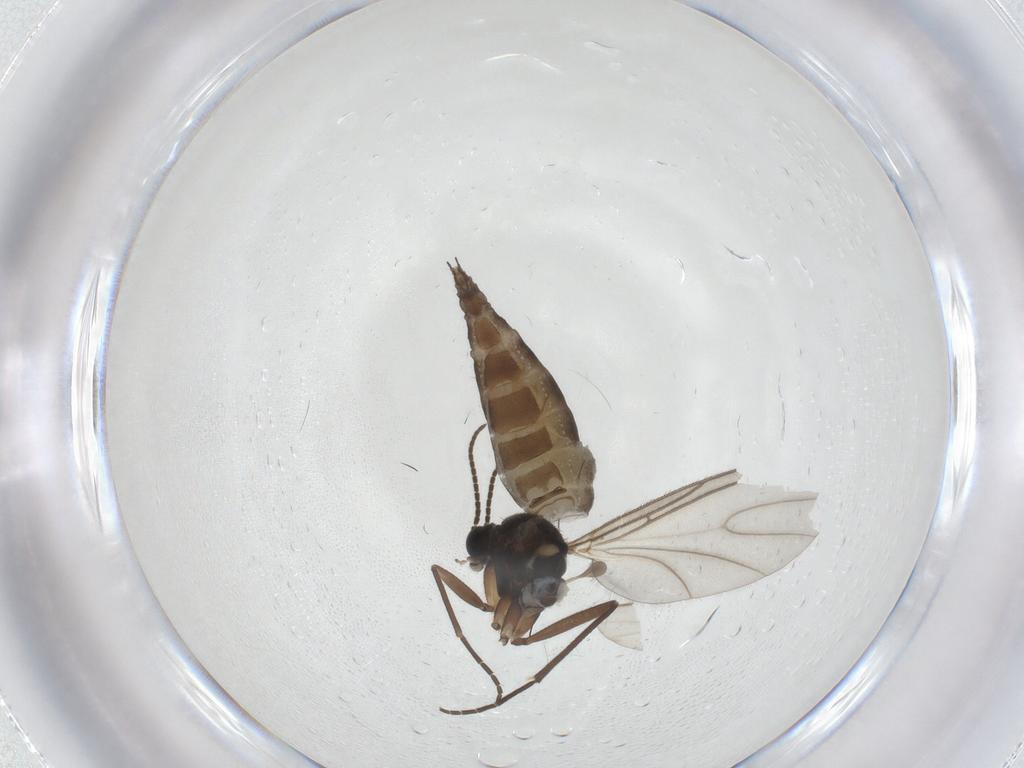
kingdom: Animalia
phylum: Arthropoda
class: Insecta
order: Diptera
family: Sciaridae
